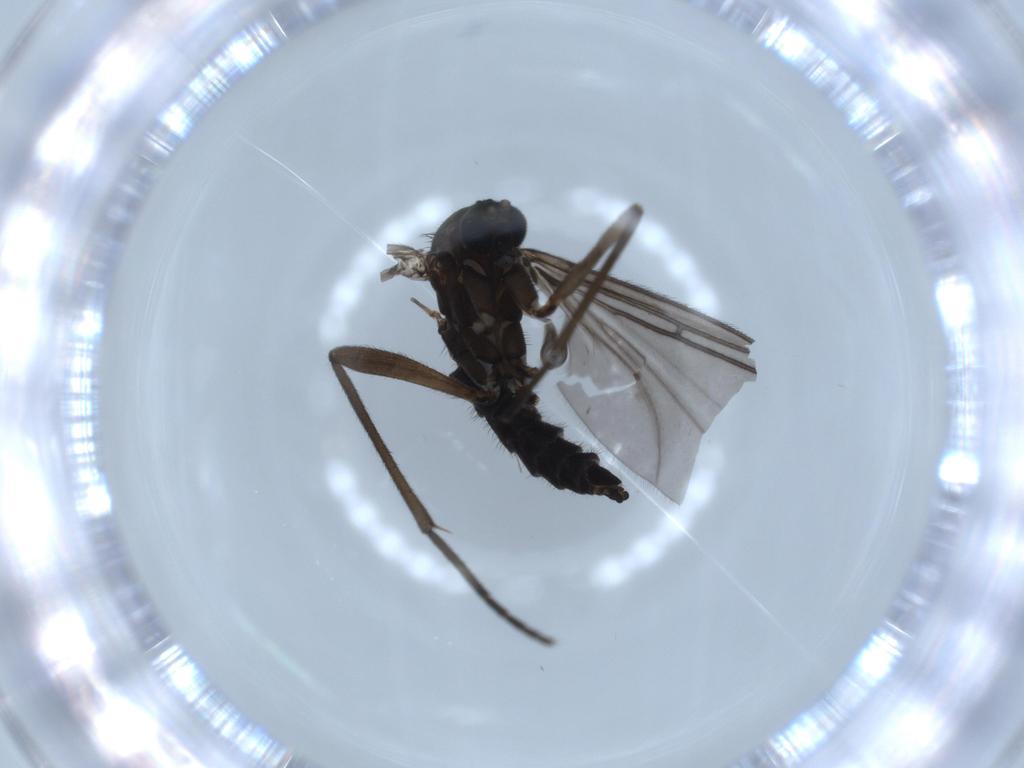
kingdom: Animalia
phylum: Arthropoda
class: Insecta
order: Diptera
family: Sciaridae
